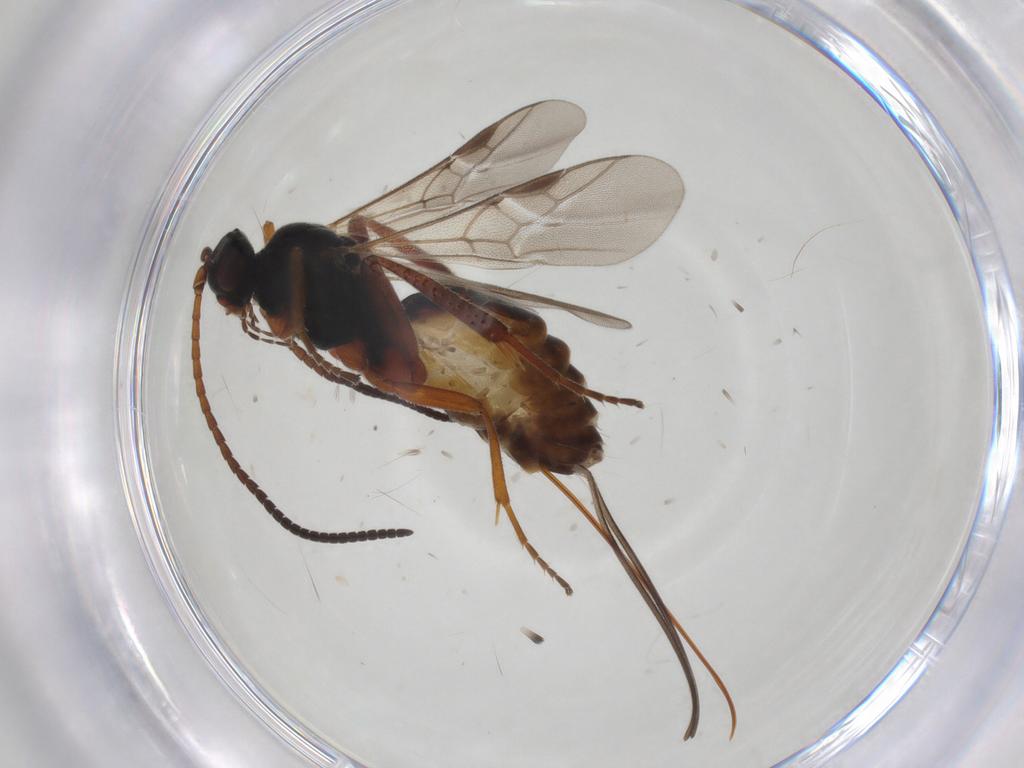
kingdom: Animalia
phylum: Arthropoda
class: Insecta
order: Hymenoptera
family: Braconidae
